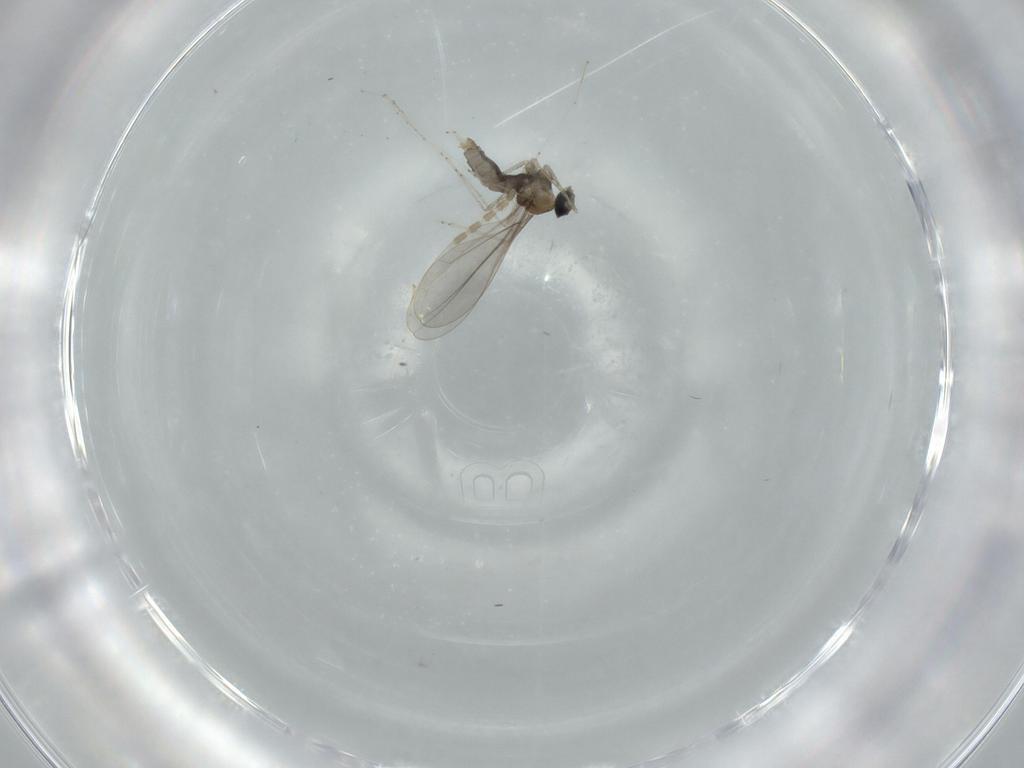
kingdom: Animalia
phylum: Arthropoda
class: Insecta
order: Diptera
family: Cecidomyiidae
